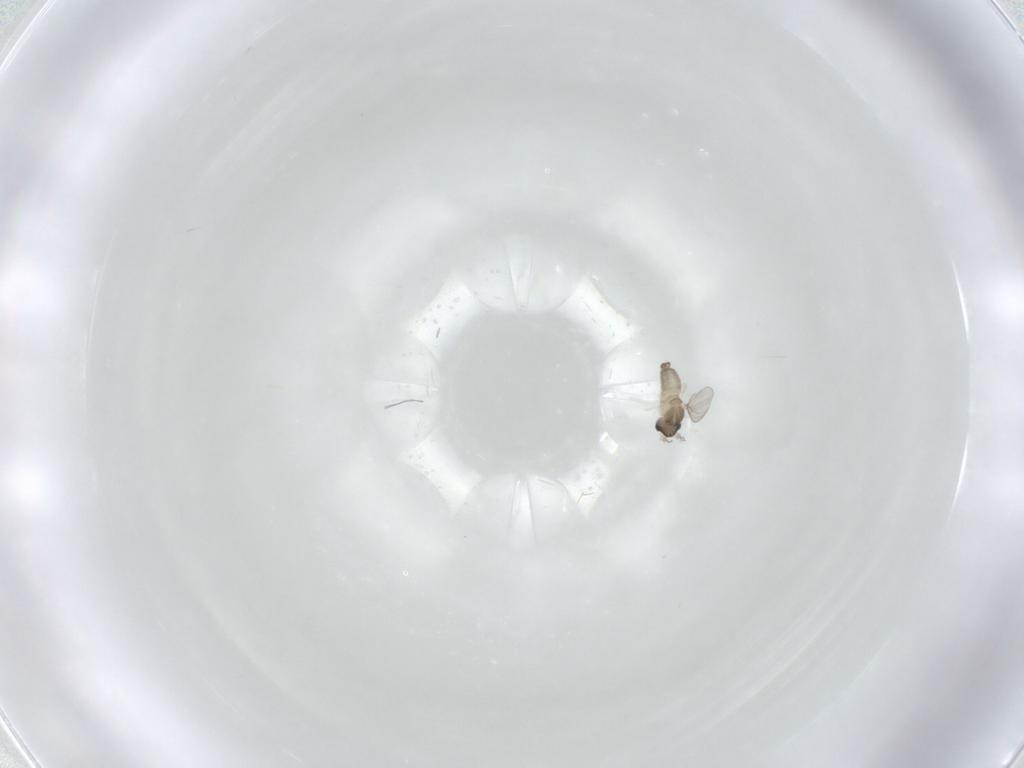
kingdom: Animalia
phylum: Arthropoda
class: Insecta
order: Diptera
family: Cecidomyiidae
